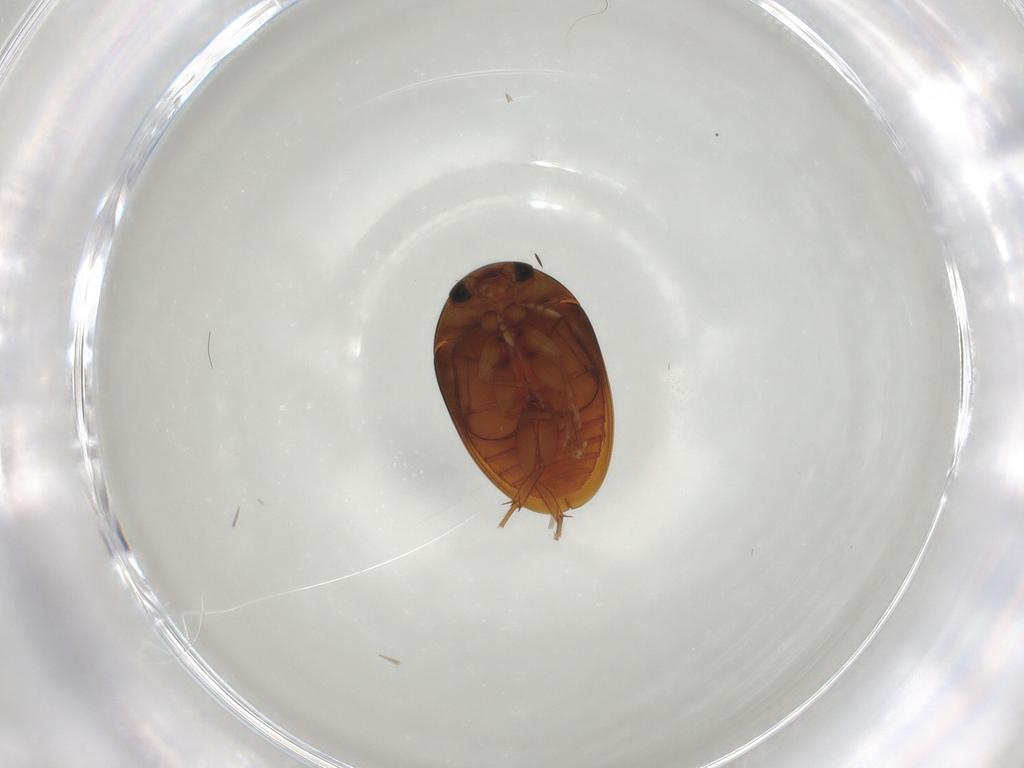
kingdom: Animalia
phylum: Arthropoda
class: Insecta
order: Coleoptera
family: Phalacridae
